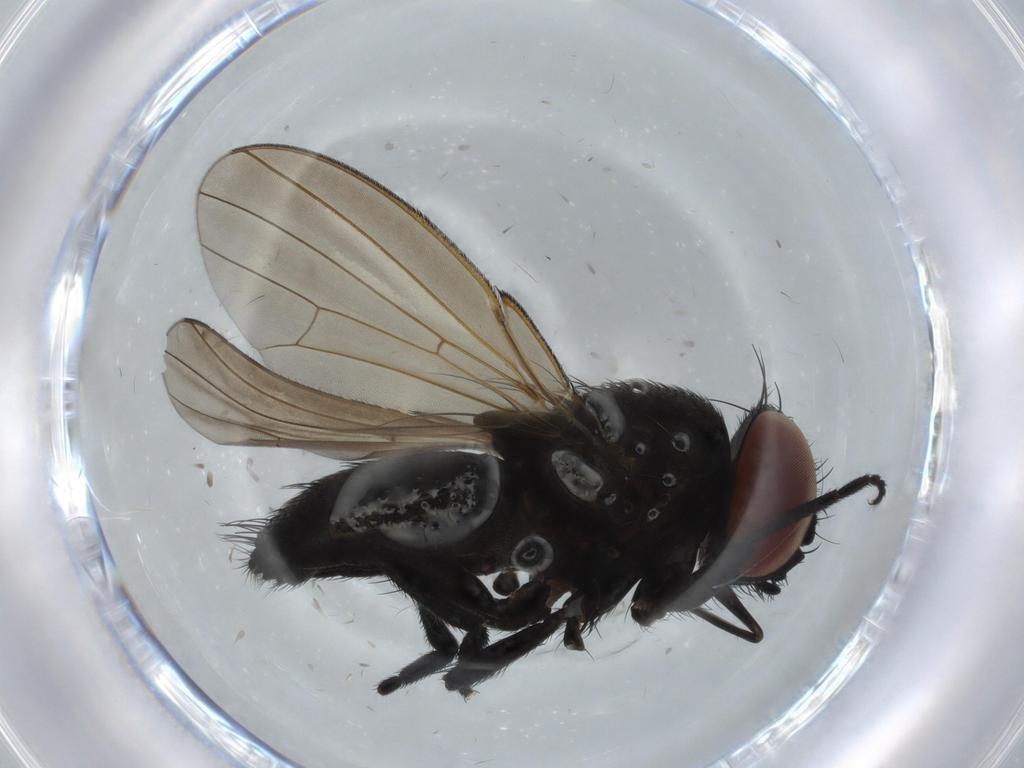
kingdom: Animalia
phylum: Arthropoda
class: Insecta
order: Diptera
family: Milichiidae
